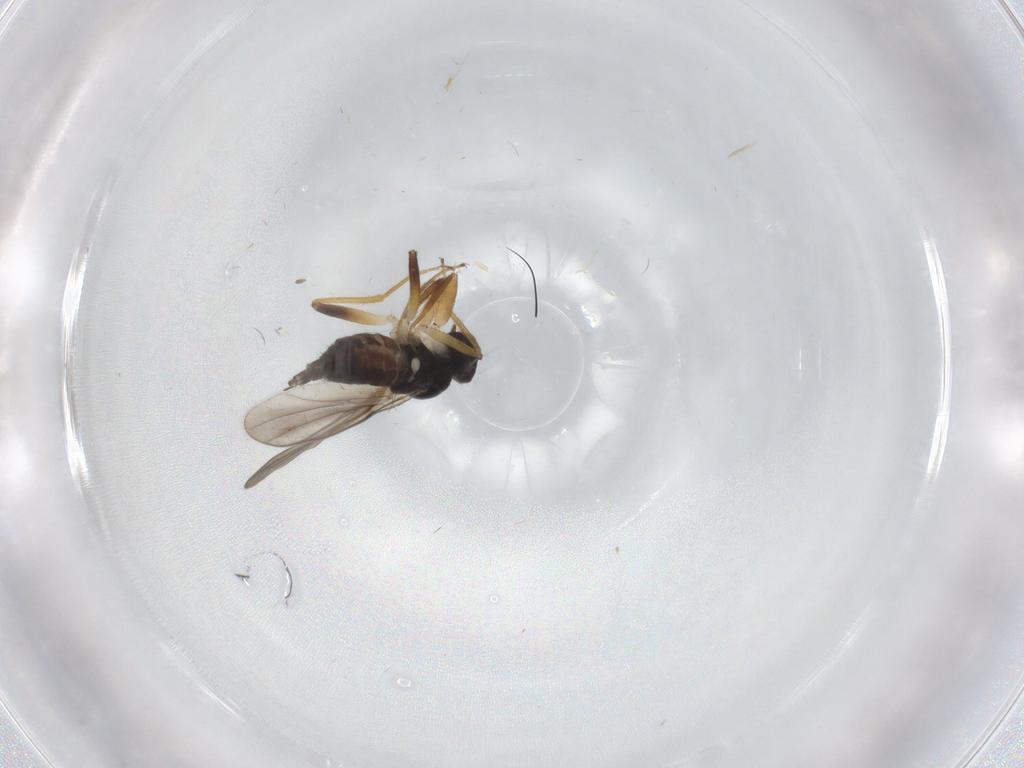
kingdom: Animalia
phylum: Arthropoda
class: Insecta
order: Diptera
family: Hybotidae
